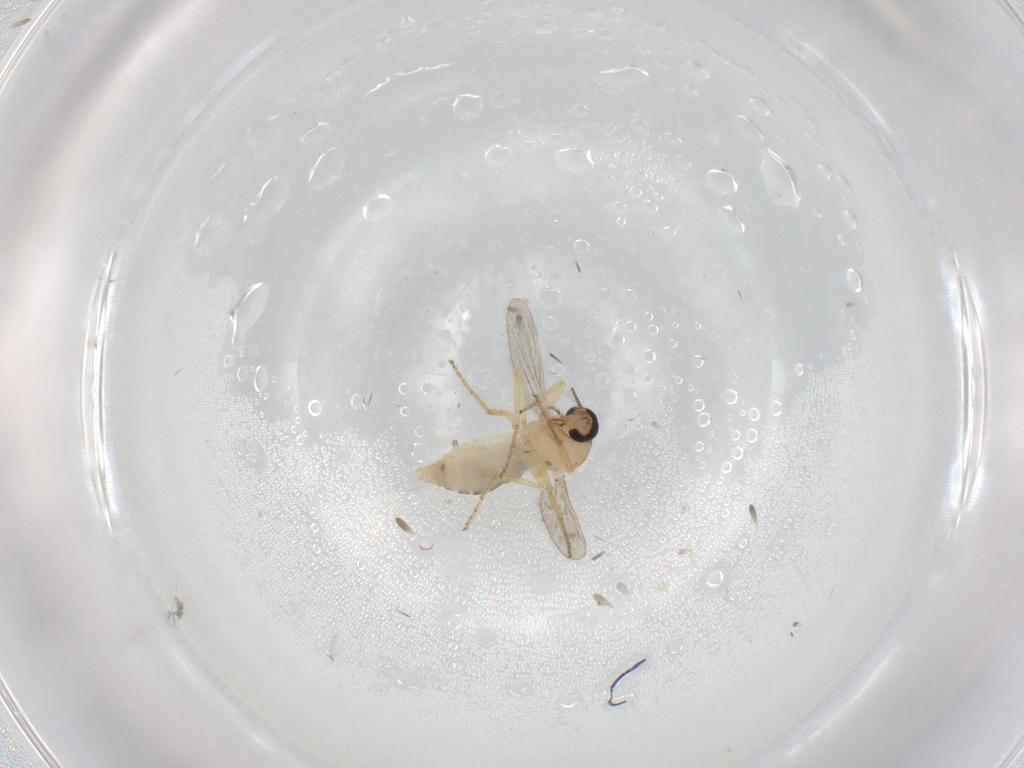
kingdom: Animalia
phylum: Arthropoda
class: Insecta
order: Diptera
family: Ceratopogonidae
